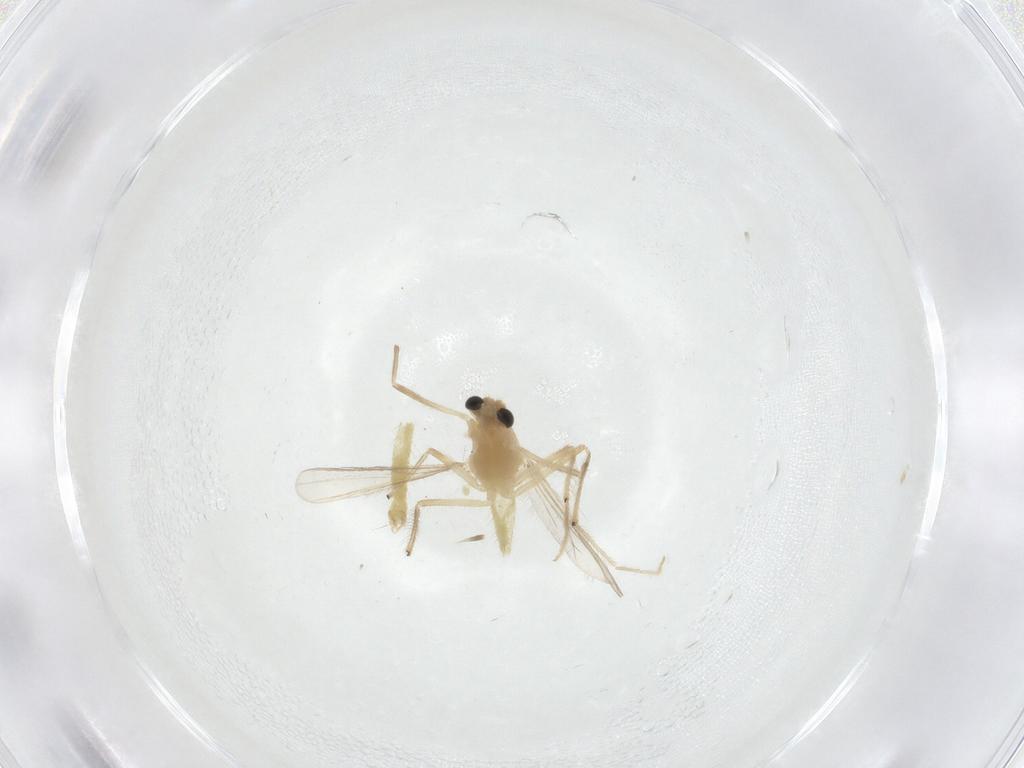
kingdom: Animalia
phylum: Arthropoda
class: Insecta
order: Diptera
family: Chironomidae
